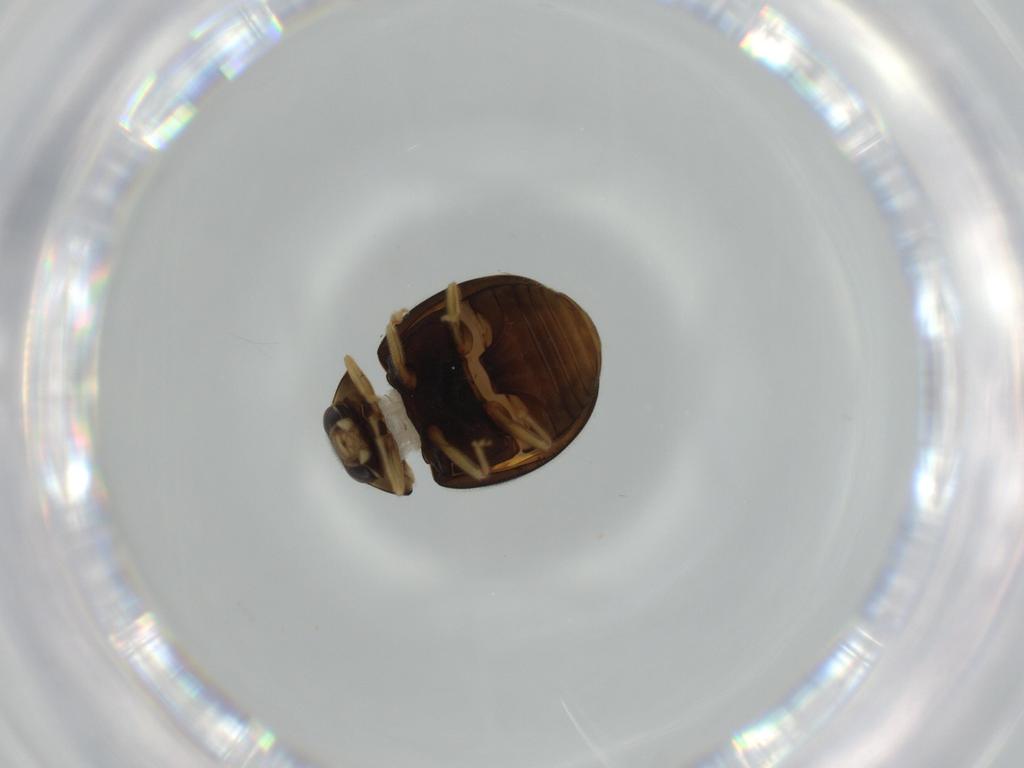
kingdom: Animalia
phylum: Arthropoda
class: Insecta
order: Coleoptera
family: Coccinellidae
